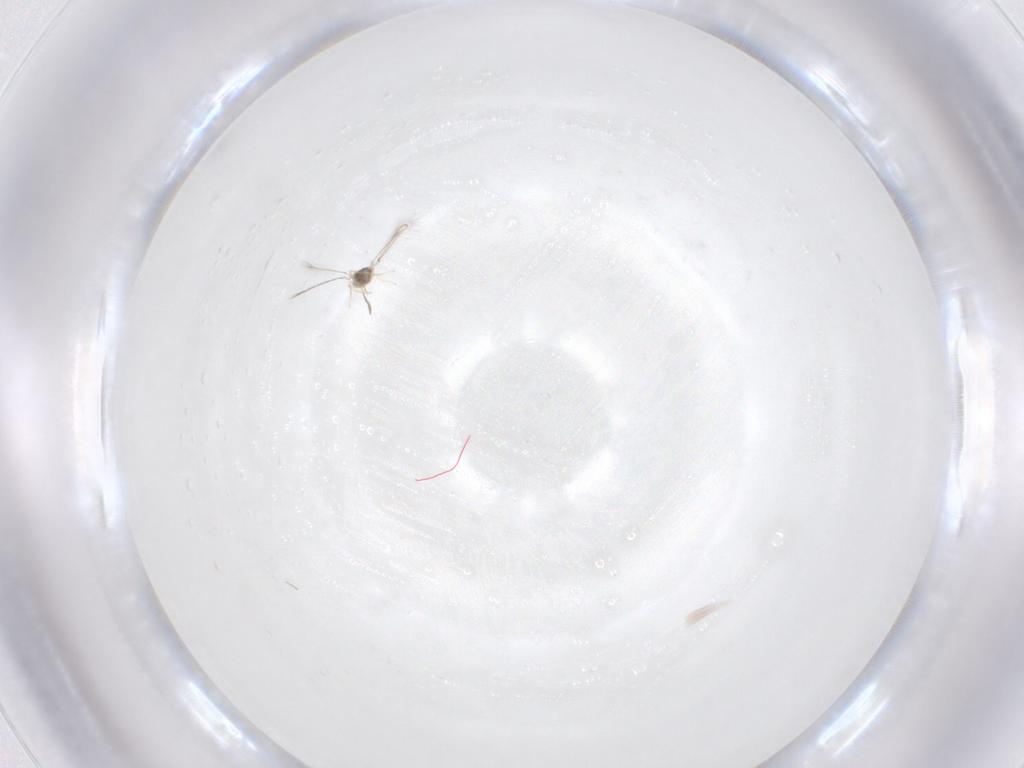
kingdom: Animalia
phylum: Arthropoda
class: Insecta
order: Hymenoptera
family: Mymaridae
